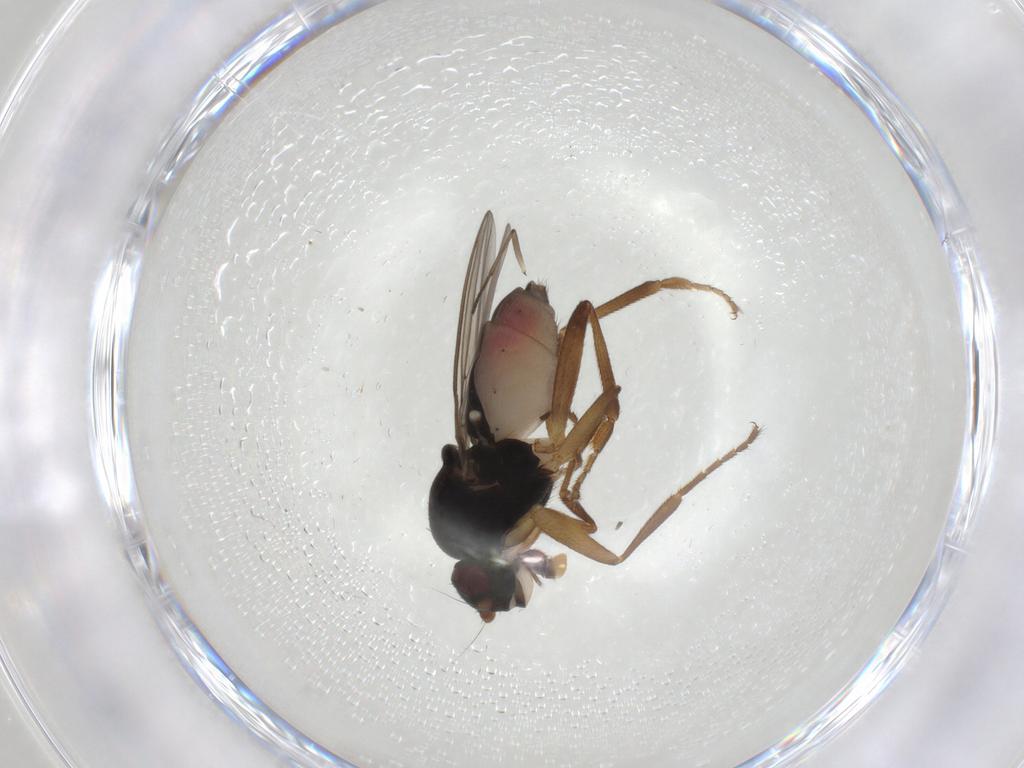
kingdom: Animalia
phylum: Arthropoda
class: Insecta
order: Diptera
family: Sphaeroceridae
